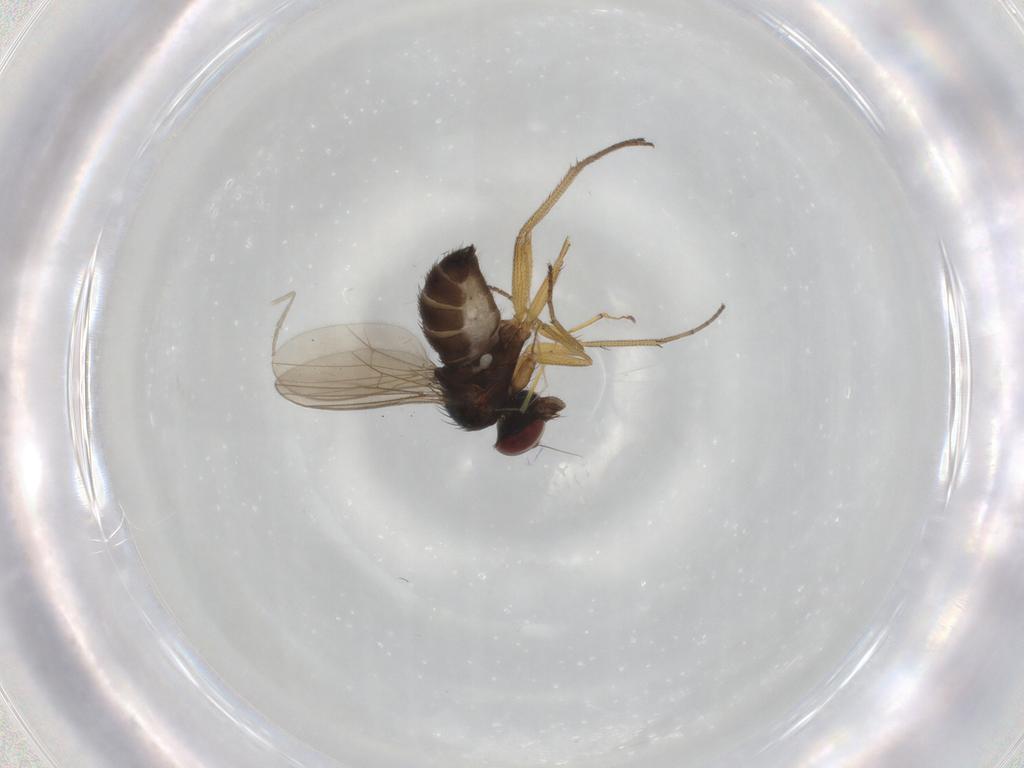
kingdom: Animalia
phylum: Arthropoda
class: Insecta
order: Diptera
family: Dolichopodidae
